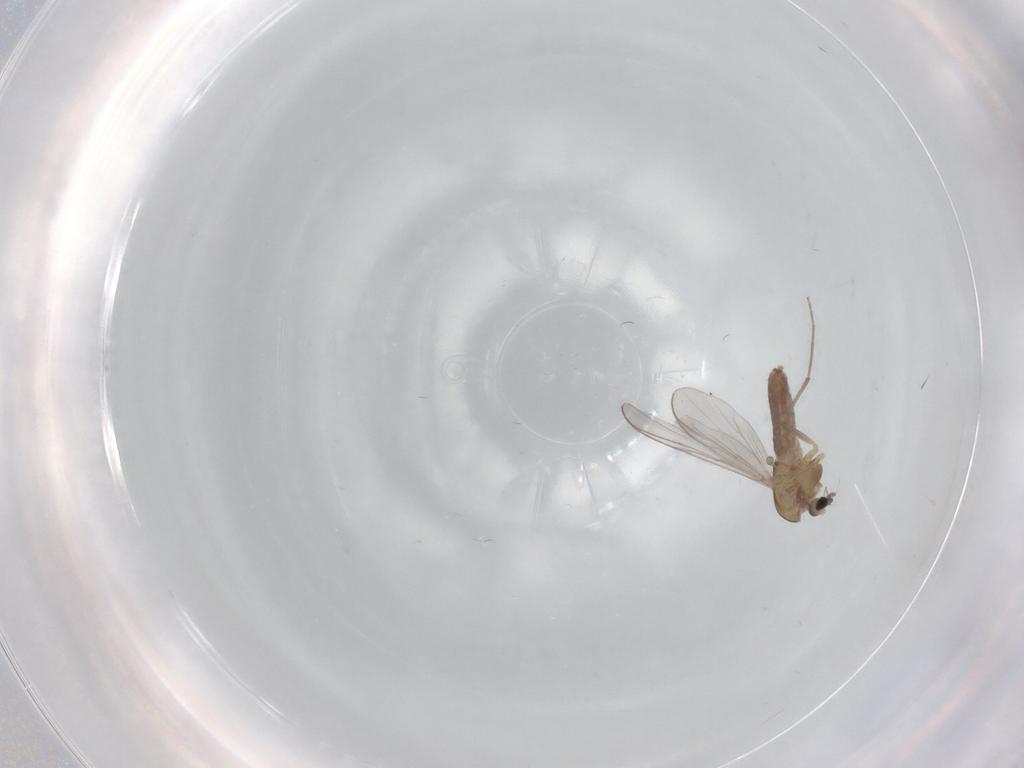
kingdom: Animalia
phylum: Arthropoda
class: Insecta
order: Diptera
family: Chironomidae
